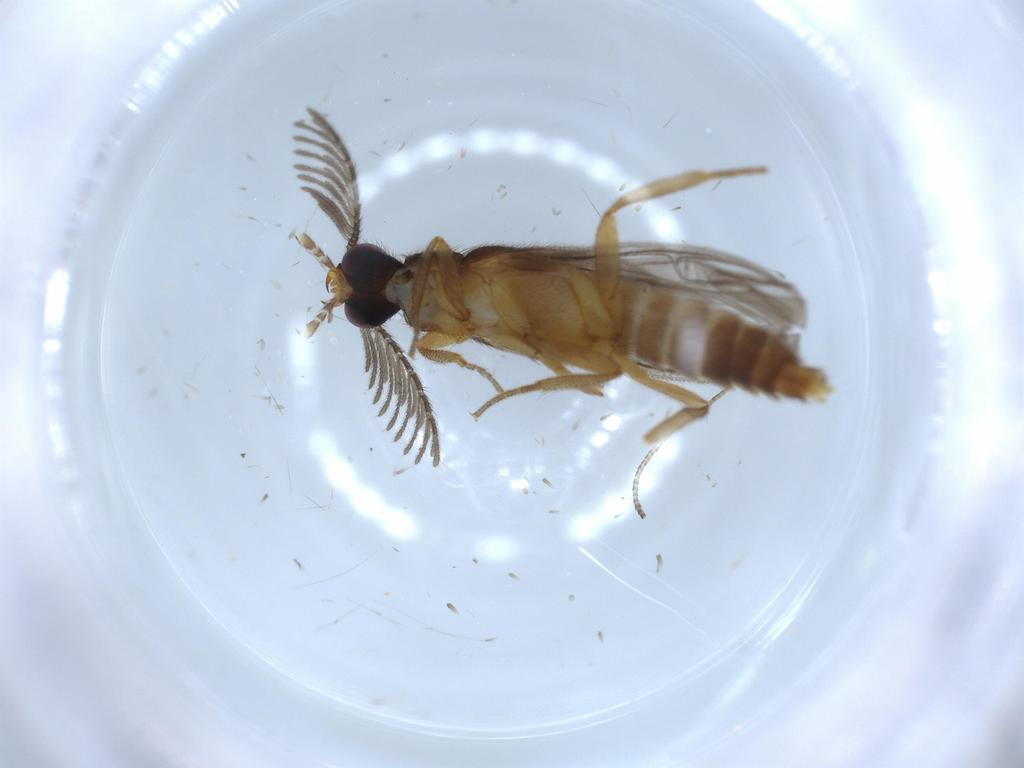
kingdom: Animalia
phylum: Arthropoda
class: Insecta
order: Coleoptera
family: Staphylinidae
